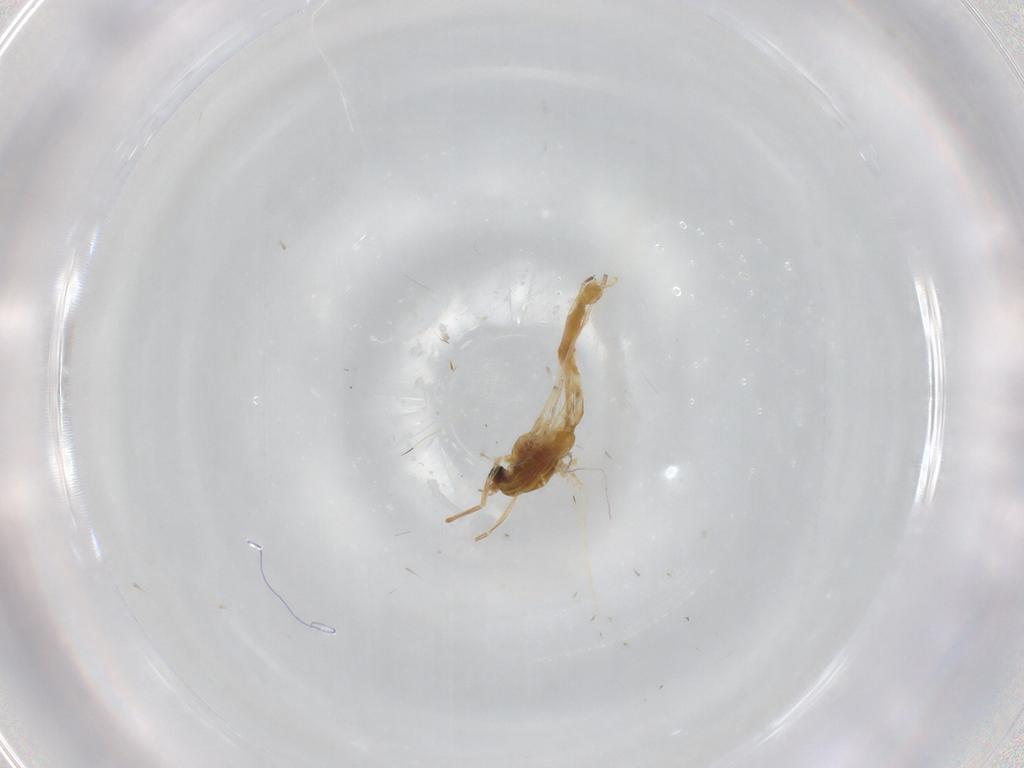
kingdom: Animalia
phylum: Arthropoda
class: Insecta
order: Diptera
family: Chironomidae
